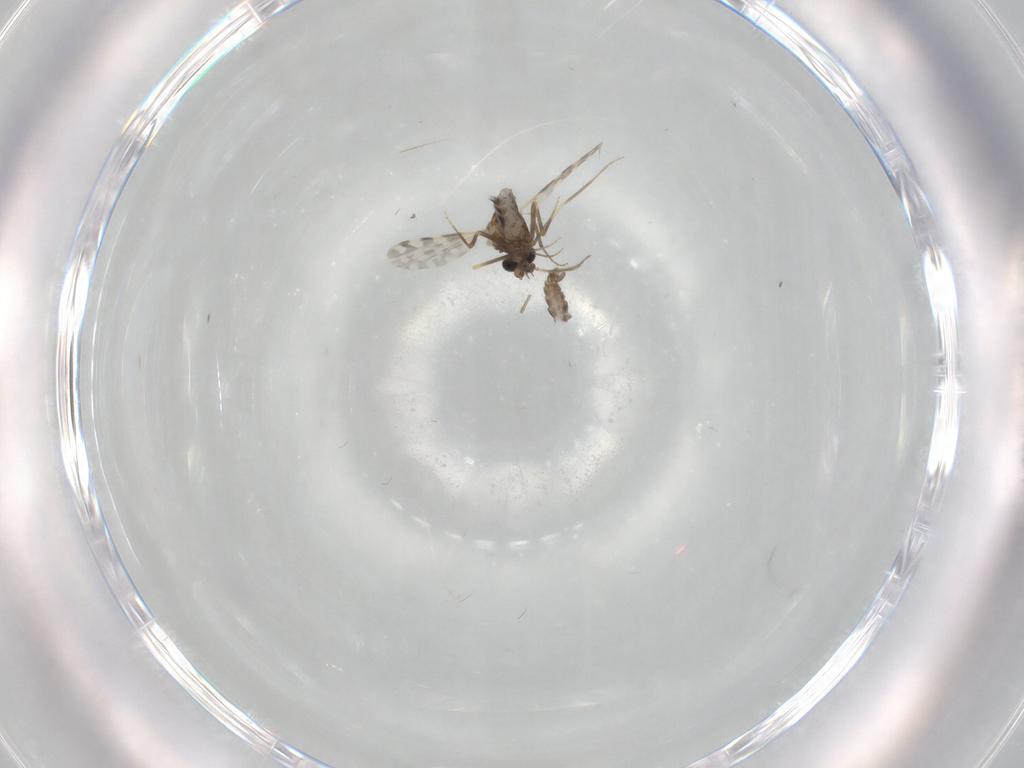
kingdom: Animalia
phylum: Arthropoda
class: Insecta
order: Diptera
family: Ceratopogonidae
